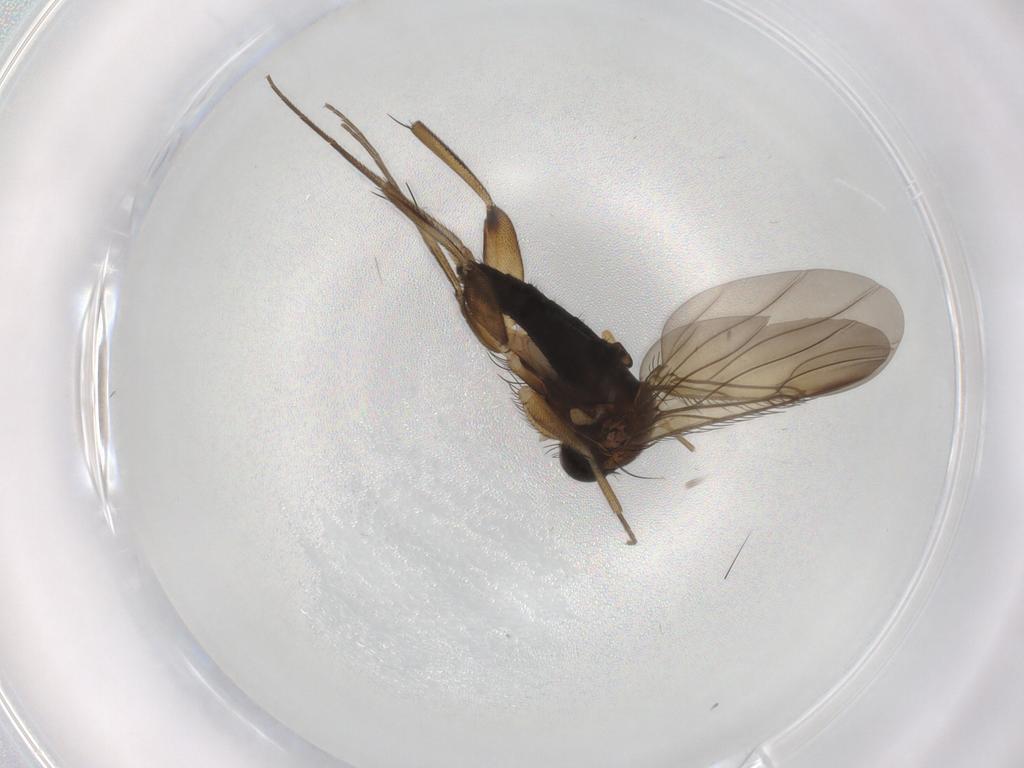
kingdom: Animalia
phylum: Arthropoda
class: Insecta
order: Diptera
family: Phoridae
